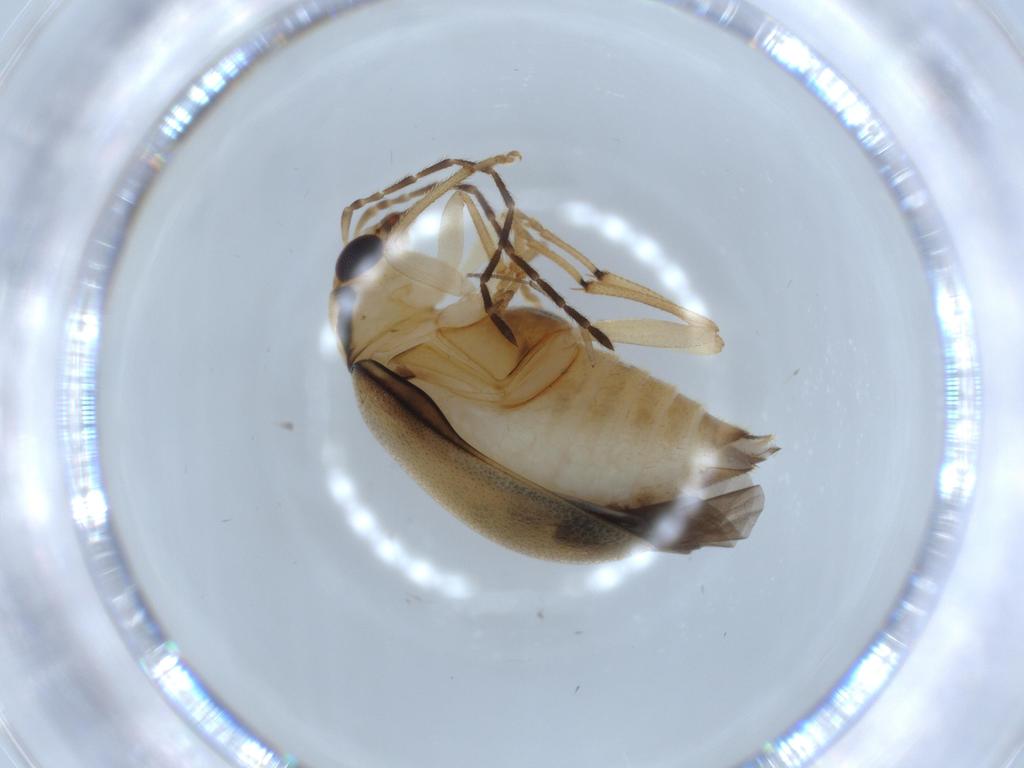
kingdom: Animalia
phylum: Arthropoda
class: Insecta
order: Coleoptera
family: Chrysomelidae
